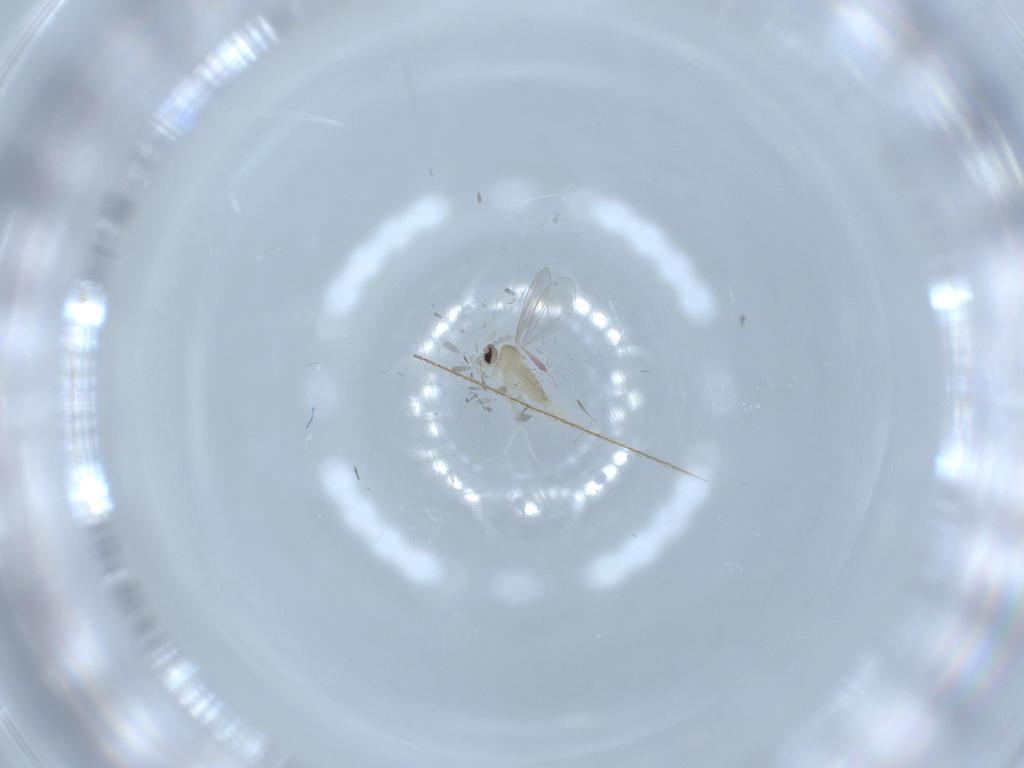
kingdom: Animalia
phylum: Arthropoda
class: Insecta
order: Diptera
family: Cecidomyiidae
